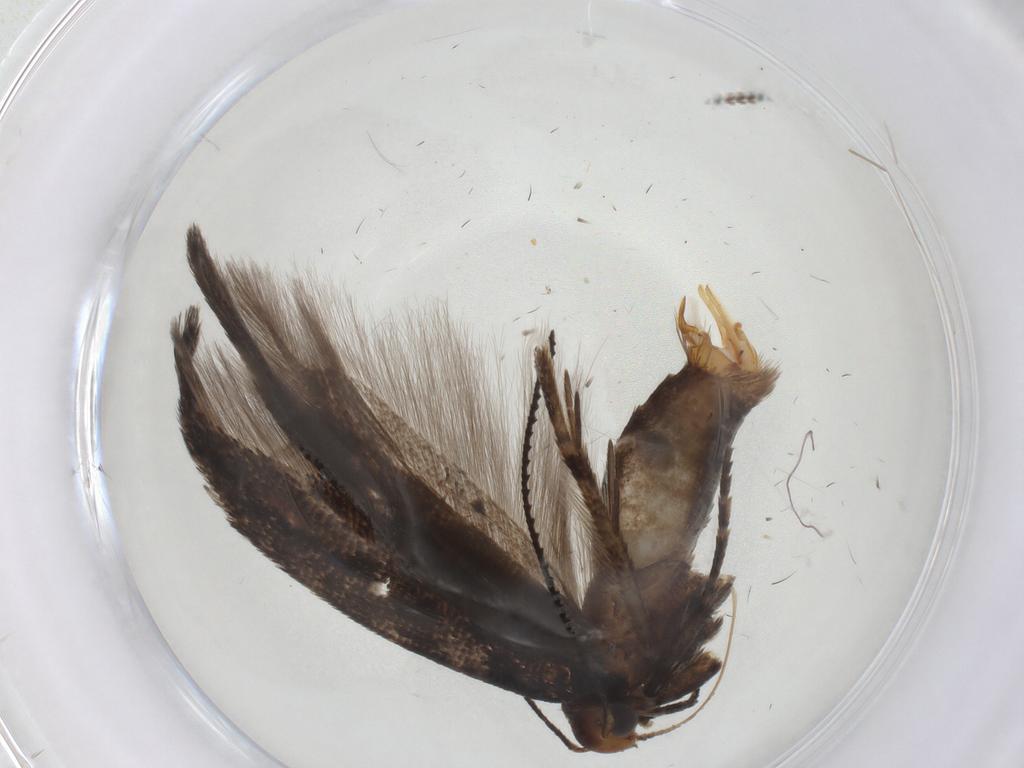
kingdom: Animalia
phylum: Arthropoda
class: Insecta
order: Lepidoptera
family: Gelechiidae
